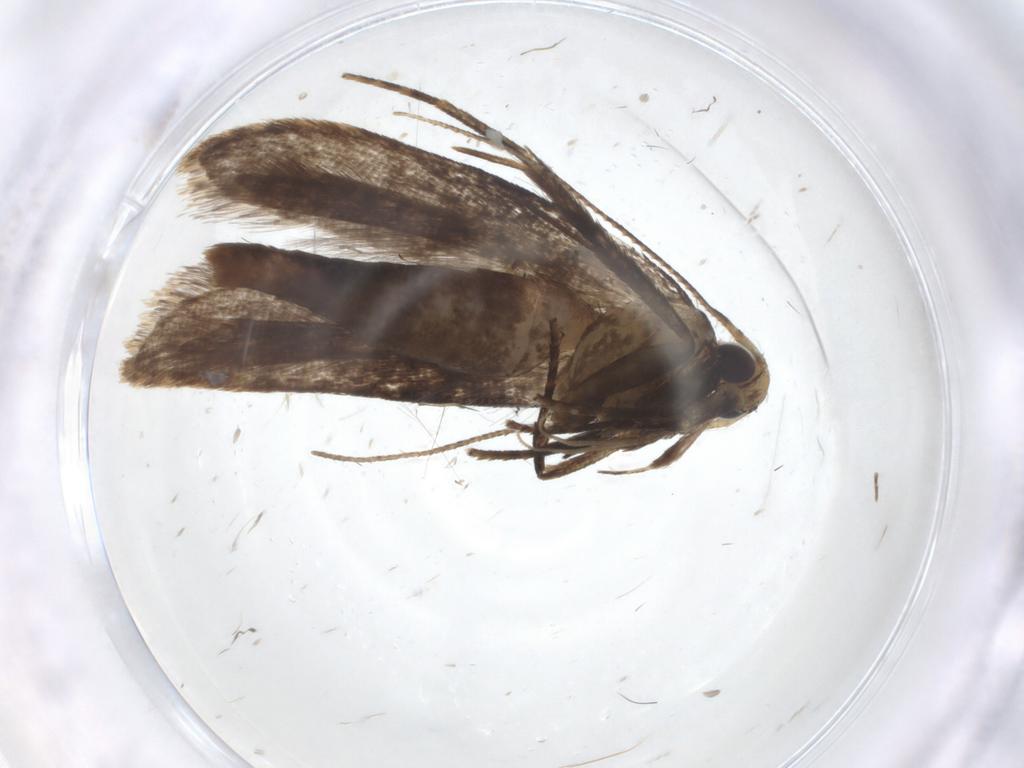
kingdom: Animalia
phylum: Arthropoda
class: Insecta
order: Lepidoptera
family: Gelechiidae
